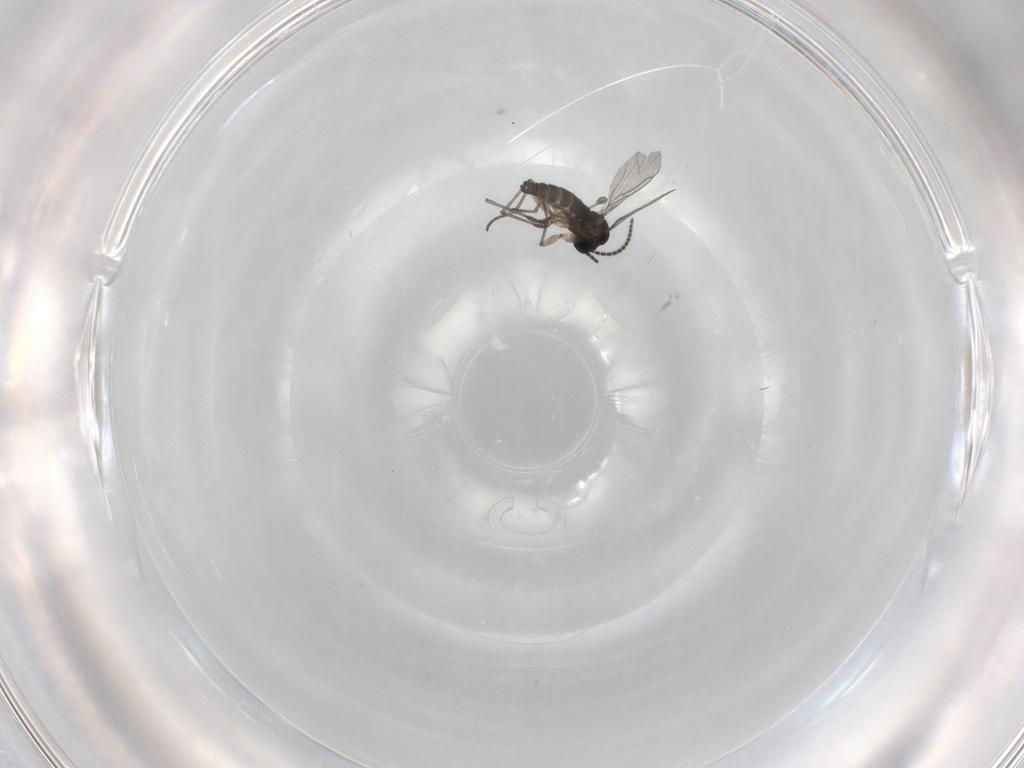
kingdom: Animalia
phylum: Arthropoda
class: Insecta
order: Diptera
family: Sciaridae
